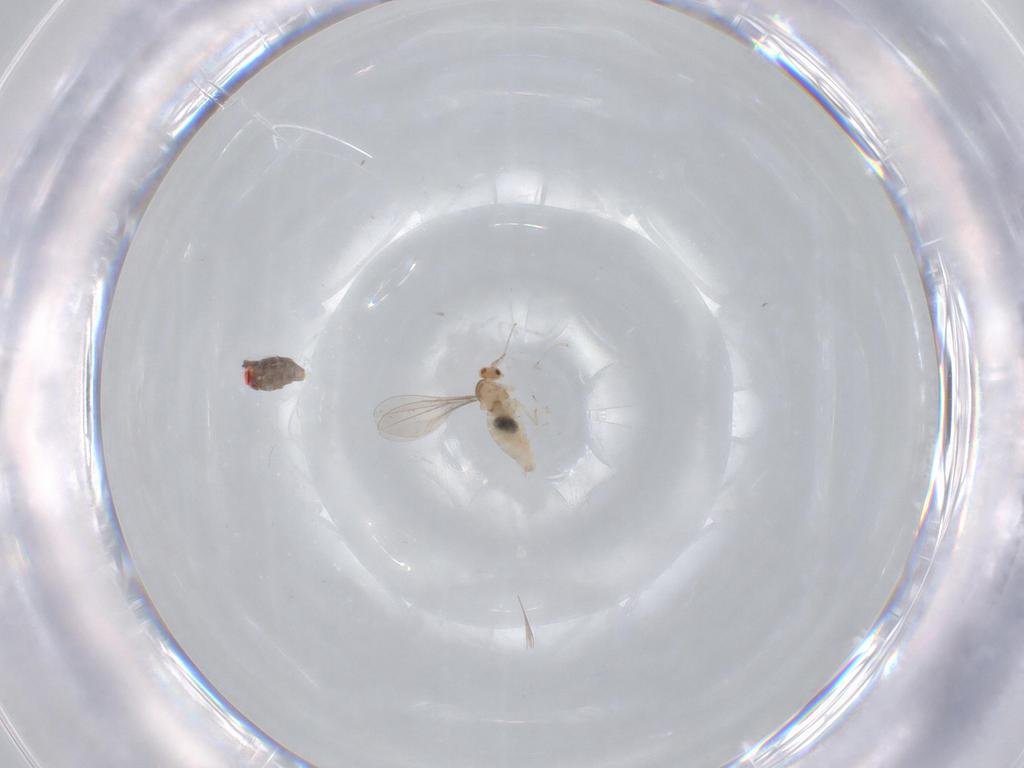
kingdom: Animalia
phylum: Arthropoda
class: Insecta
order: Diptera
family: Cecidomyiidae
